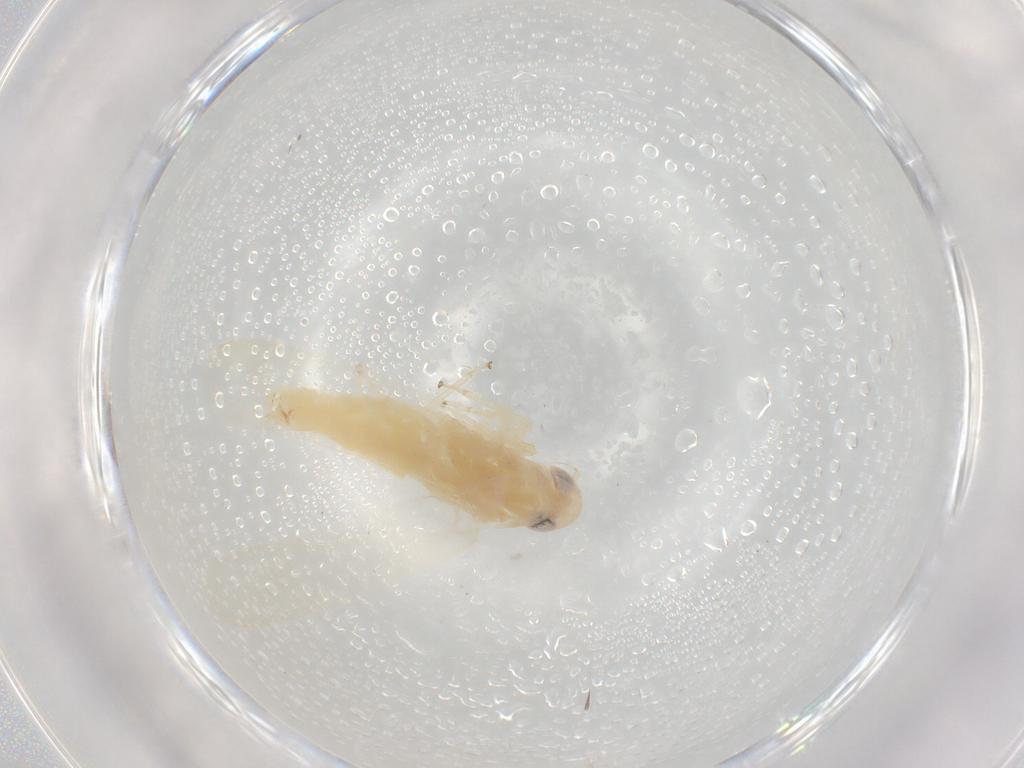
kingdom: Animalia
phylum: Arthropoda
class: Insecta
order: Hemiptera
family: Cicadellidae
